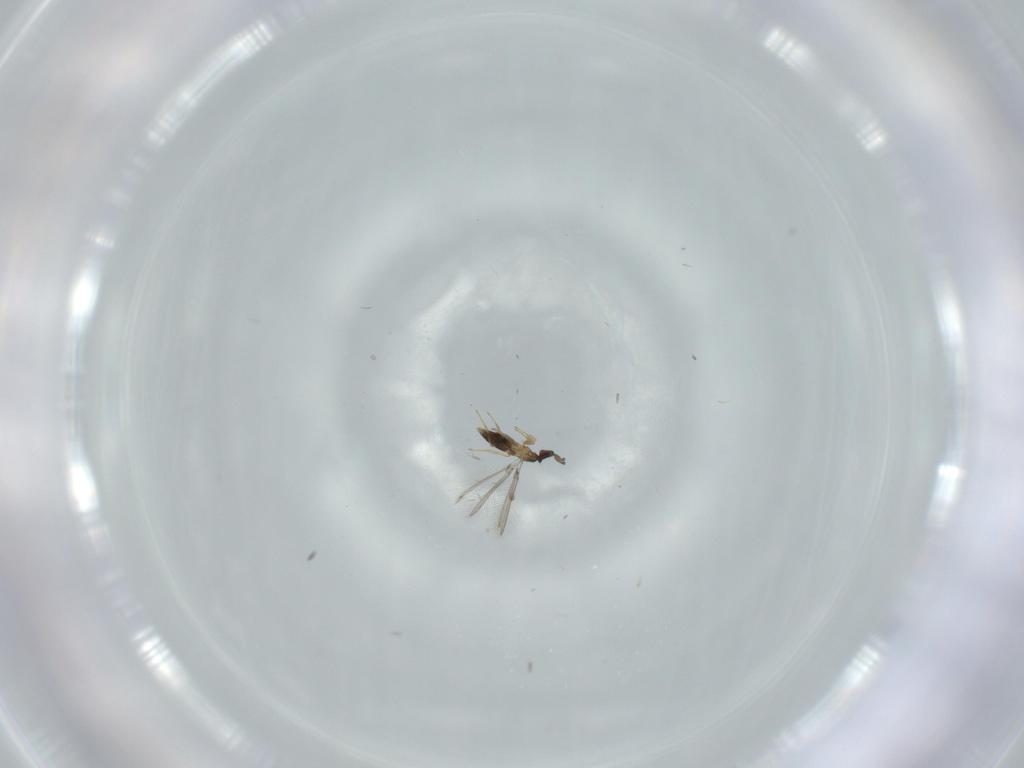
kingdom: Animalia
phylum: Arthropoda
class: Insecta
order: Hymenoptera
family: Mymaridae
